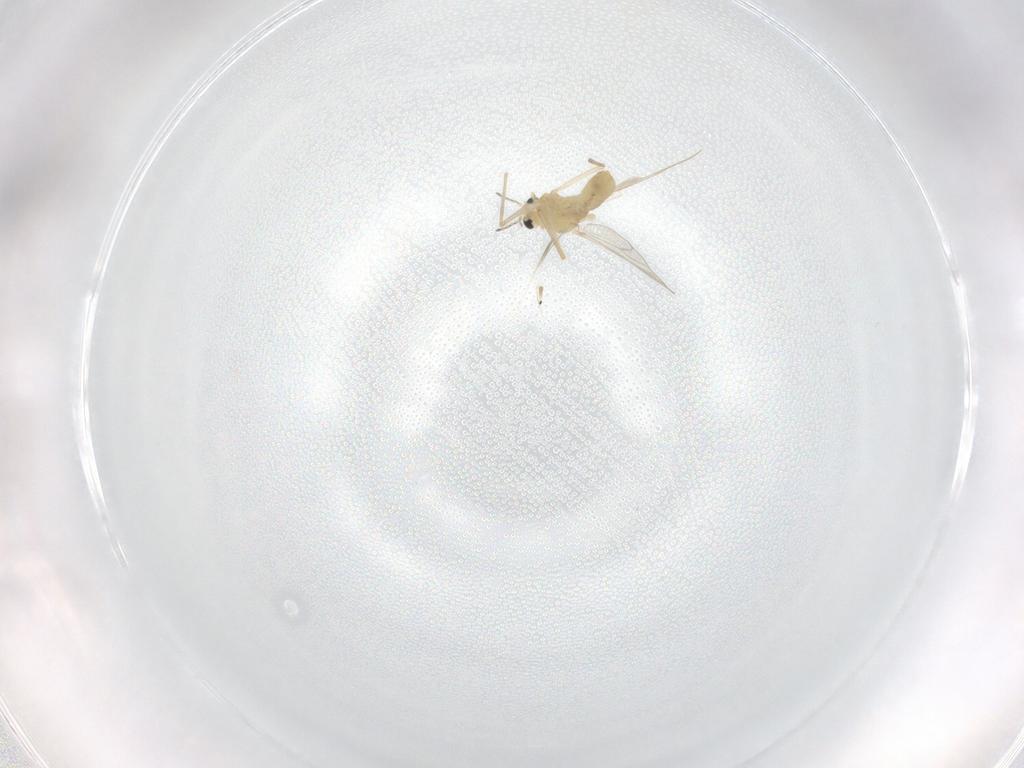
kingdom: Animalia
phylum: Arthropoda
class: Insecta
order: Diptera
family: Chironomidae
